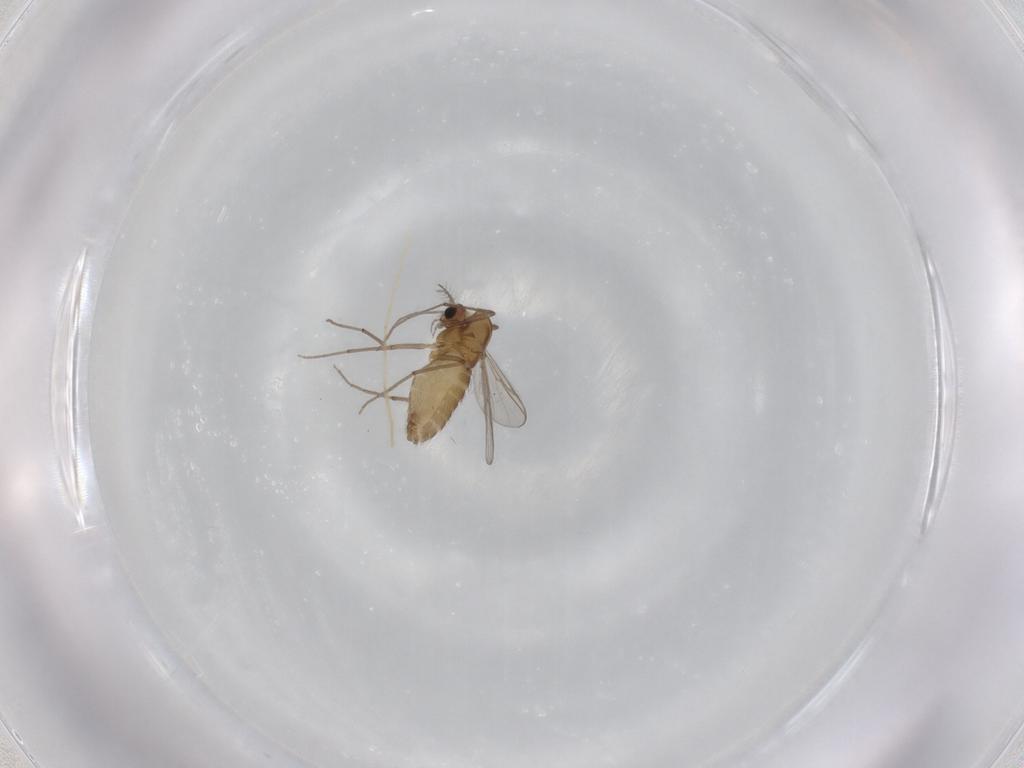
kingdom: Animalia
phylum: Arthropoda
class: Insecta
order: Diptera
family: Chironomidae
